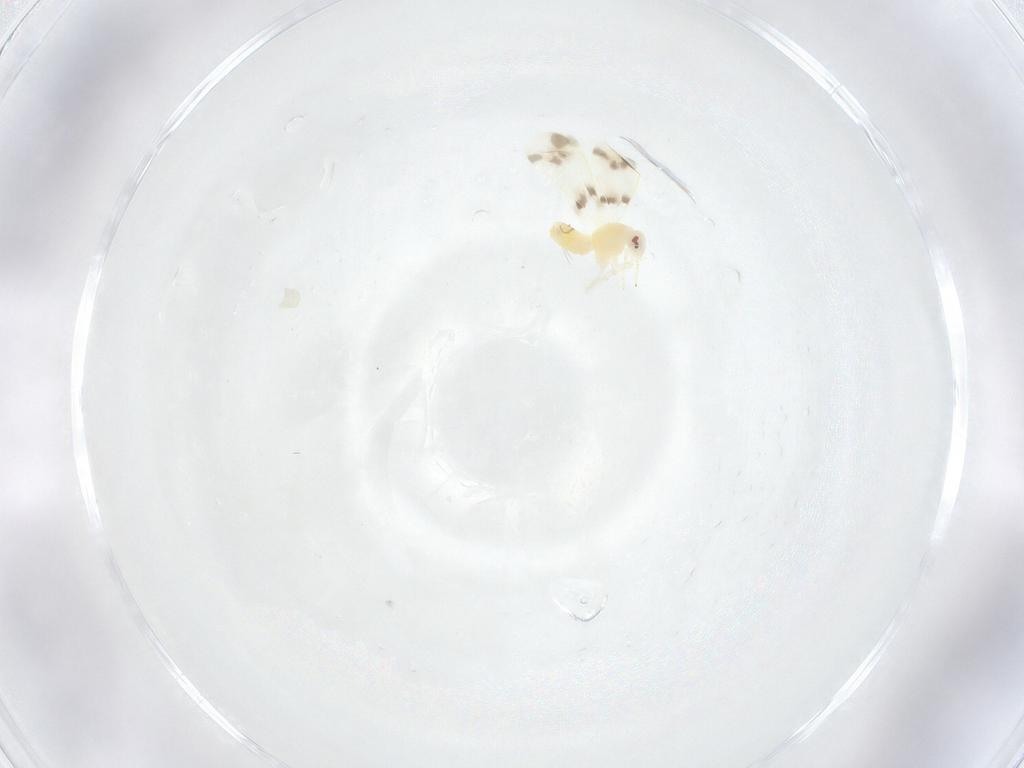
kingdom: Animalia
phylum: Arthropoda
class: Insecta
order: Hemiptera
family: Aleyrodidae
